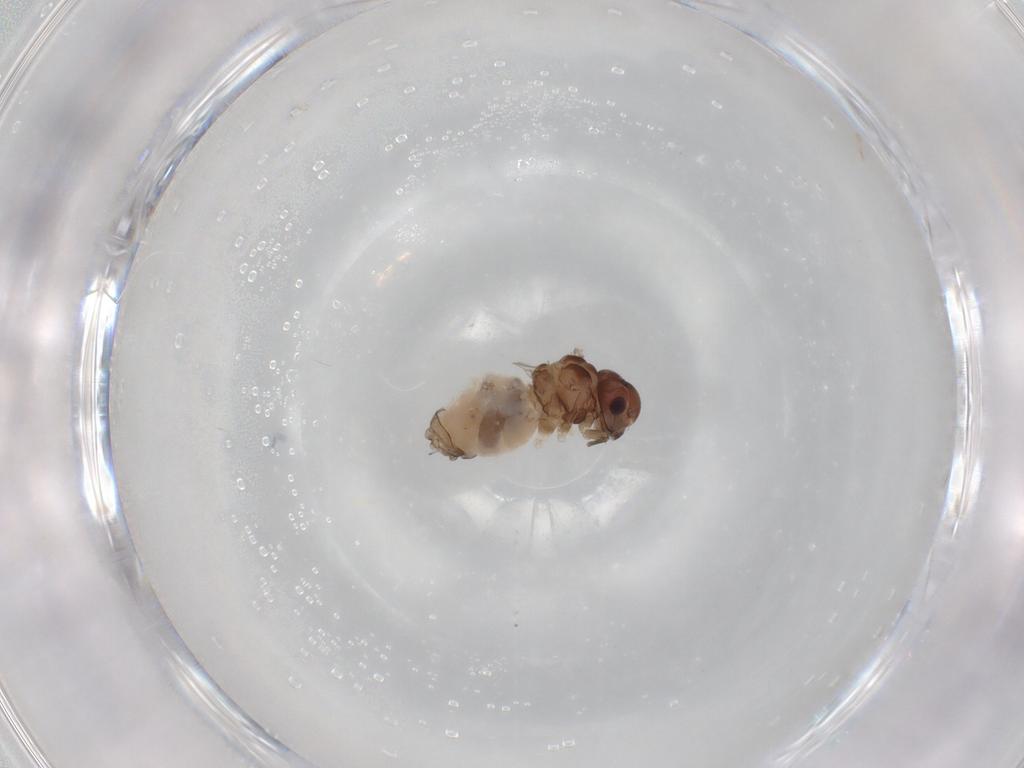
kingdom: Animalia
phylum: Arthropoda
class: Insecta
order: Psocodea
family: Peripsocidae
